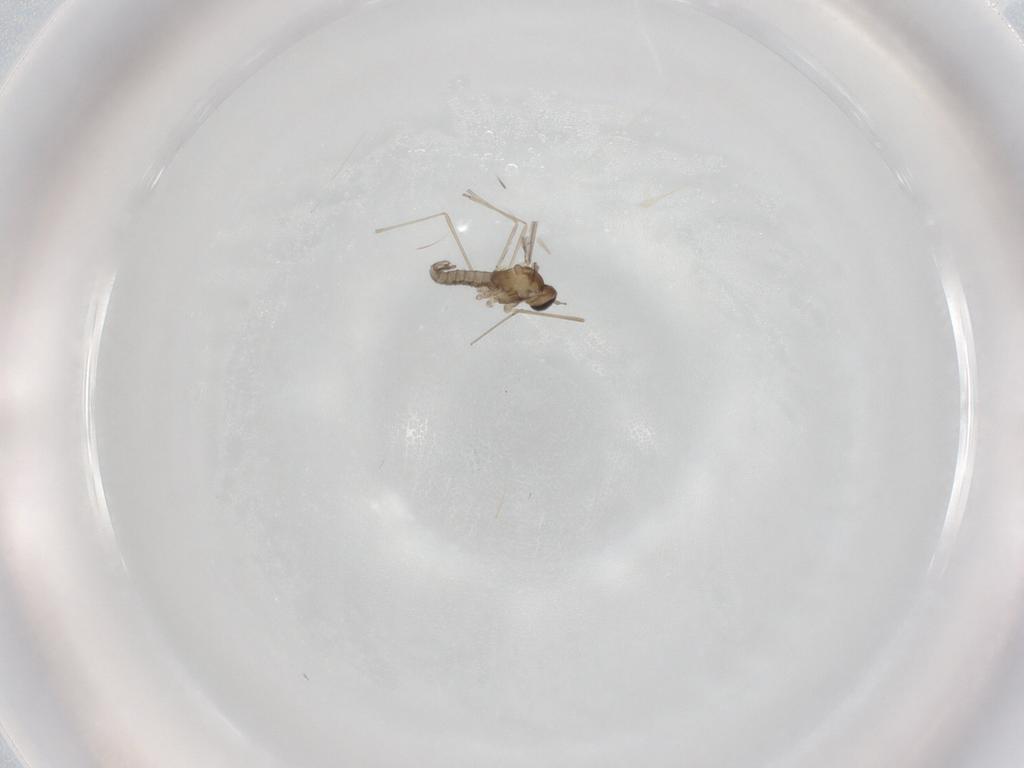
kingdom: Animalia
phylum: Arthropoda
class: Insecta
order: Diptera
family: Cecidomyiidae
